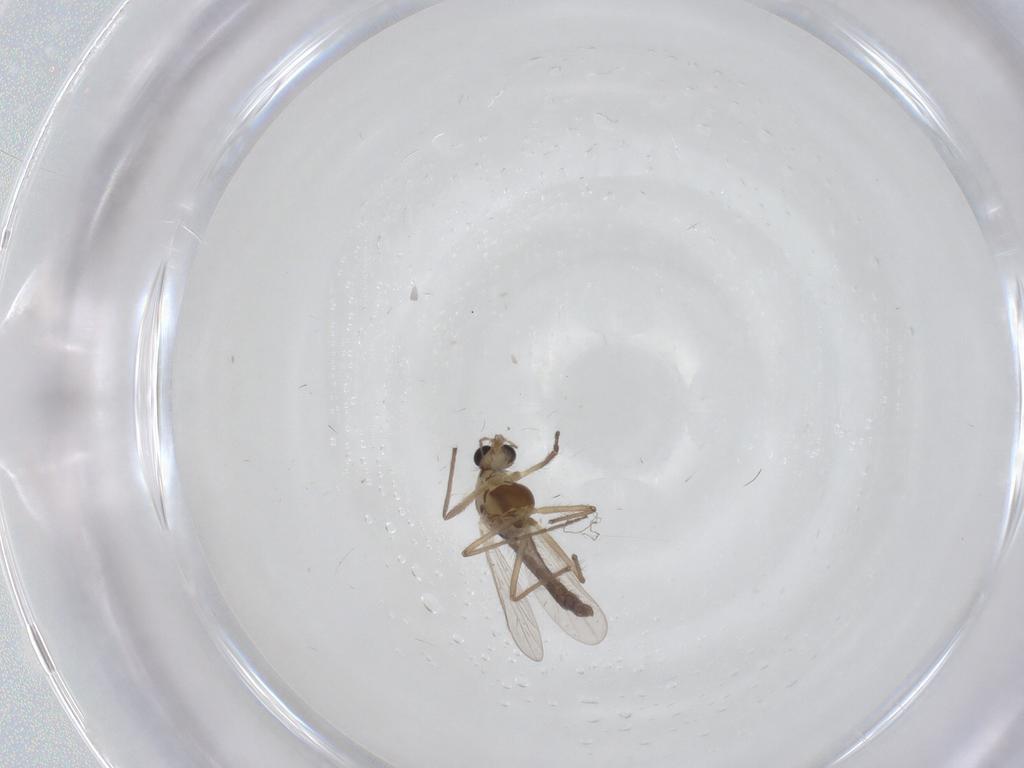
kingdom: Animalia
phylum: Arthropoda
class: Insecta
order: Diptera
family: Chironomidae
